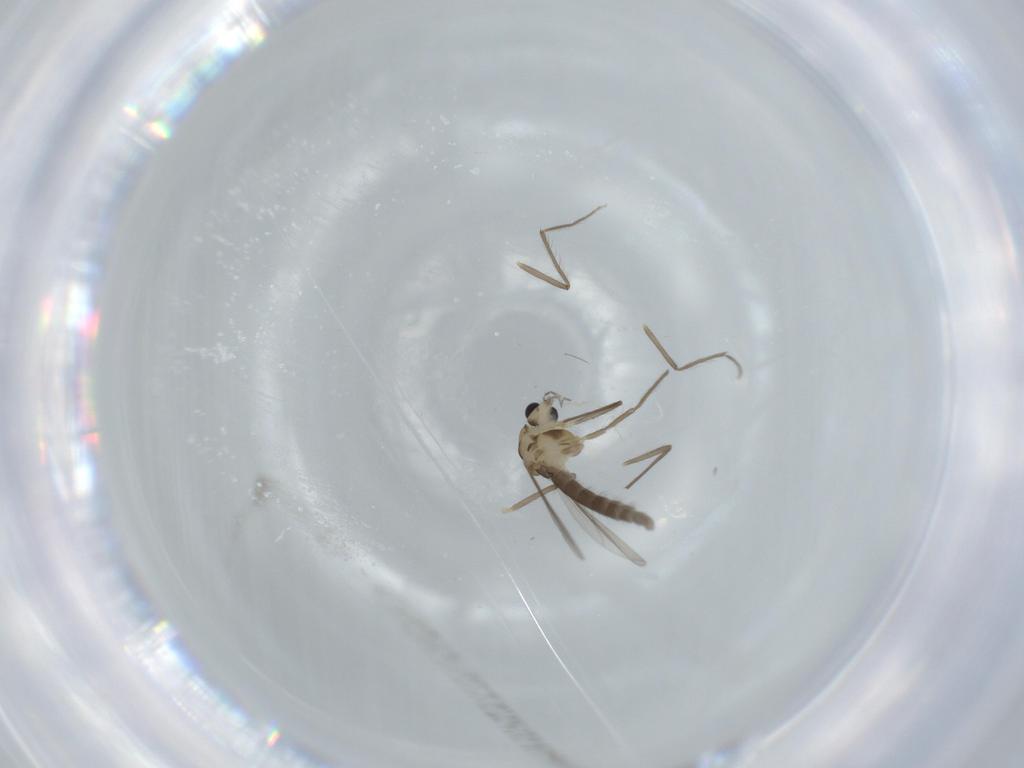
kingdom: Animalia
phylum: Arthropoda
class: Insecta
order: Diptera
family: Chironomidae
